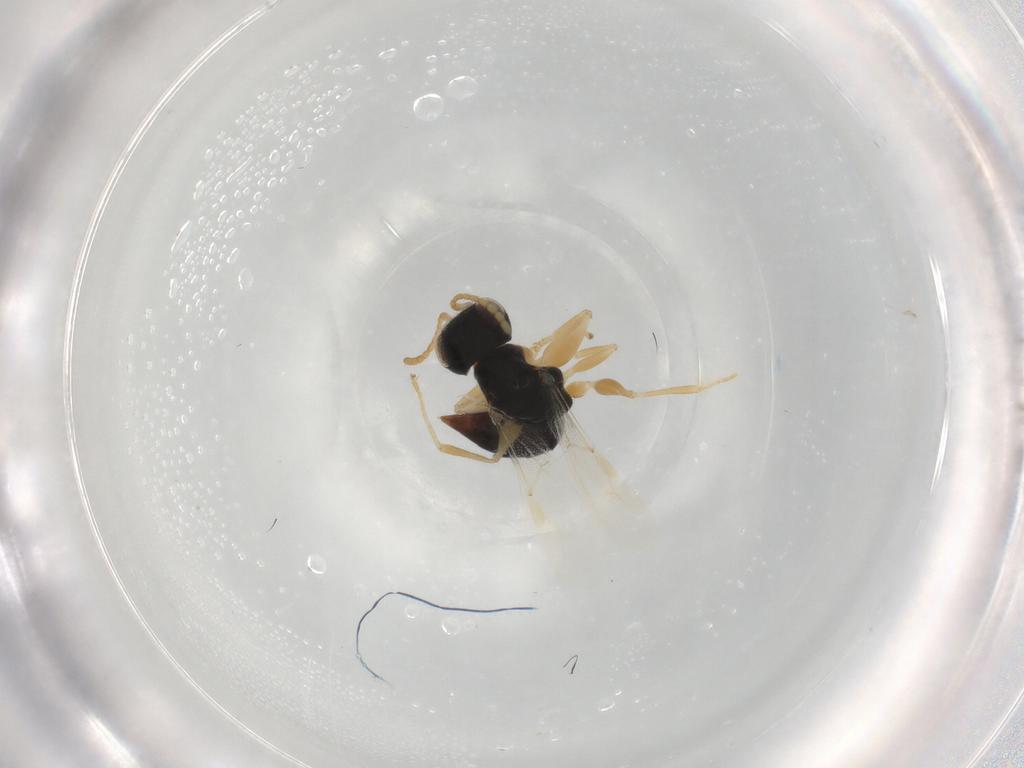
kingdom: Animalia
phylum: Arthropoda
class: Insecta
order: Hymenoptera
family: Dryinidae
